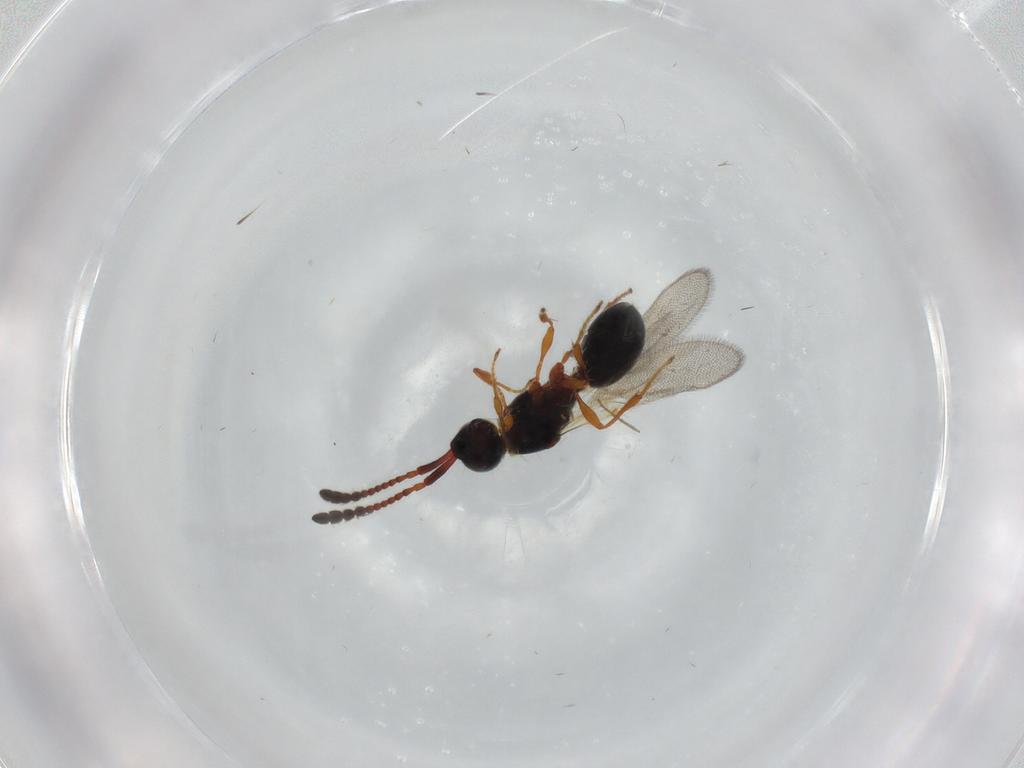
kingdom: Animalia
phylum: Arthropoda
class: Insecta
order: Hymenoptera
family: Diapriidae
